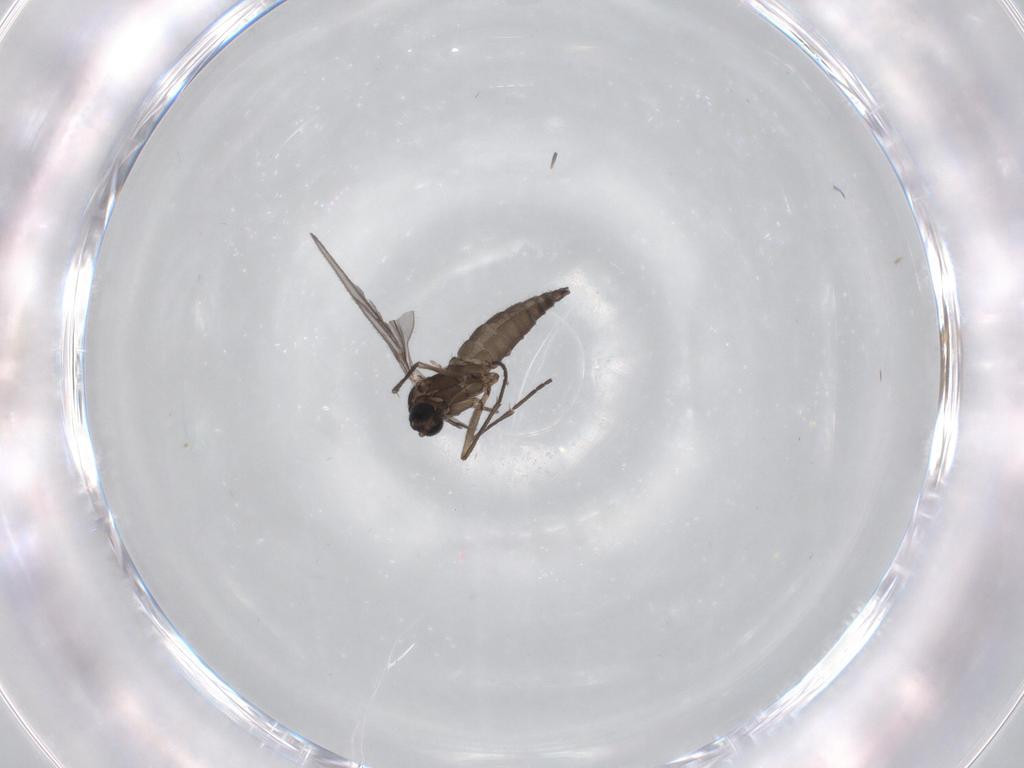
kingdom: Animalia
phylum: Arthropoda
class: Insecta
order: Diptera
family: Sciaridae
